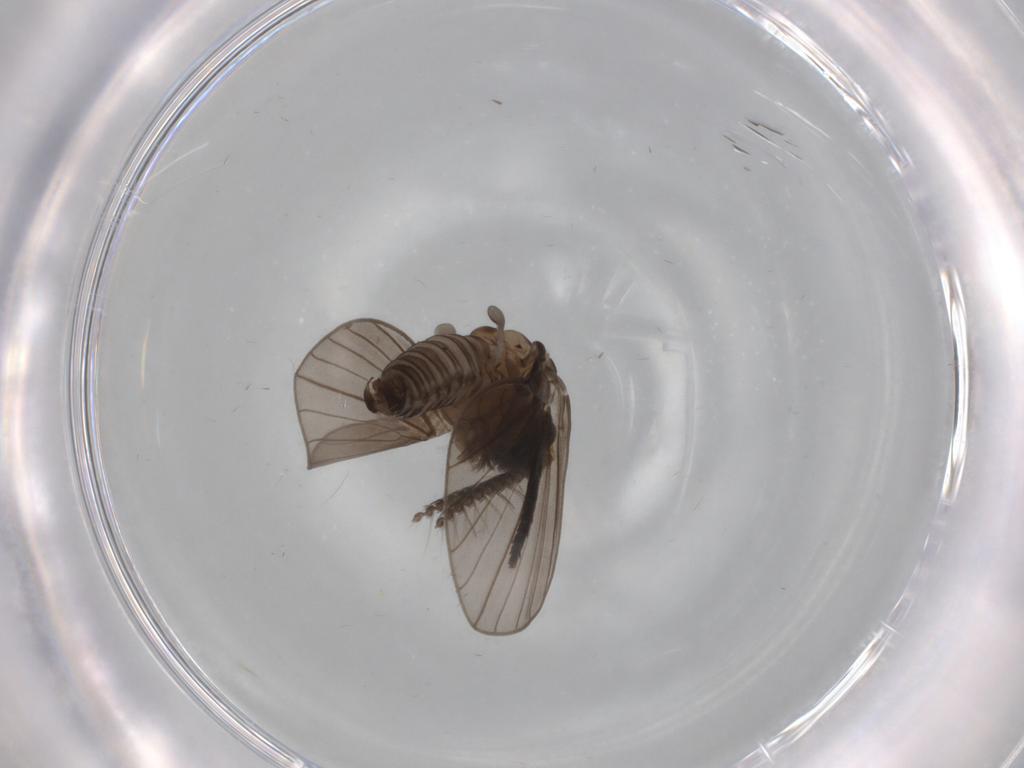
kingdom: Animalia
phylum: Arthropoda
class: Insecta
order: Diptera
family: Psychodidae
